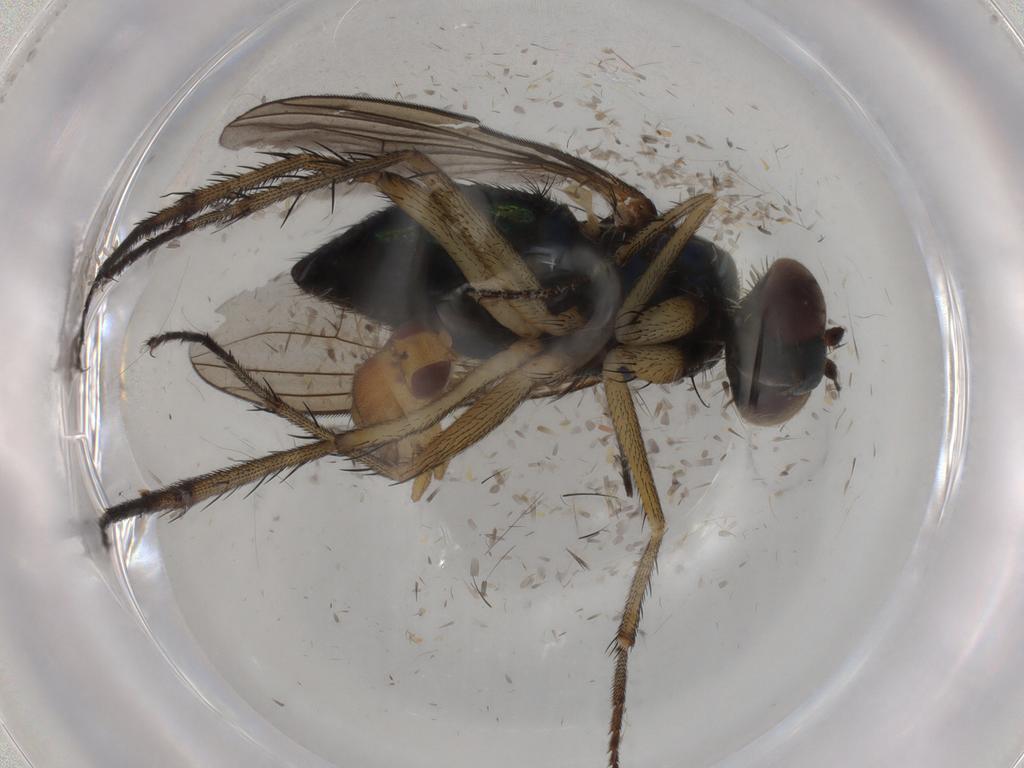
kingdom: Animalia
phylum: Arthropoda
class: Insecta
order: Diptera
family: Dolichopodidae
